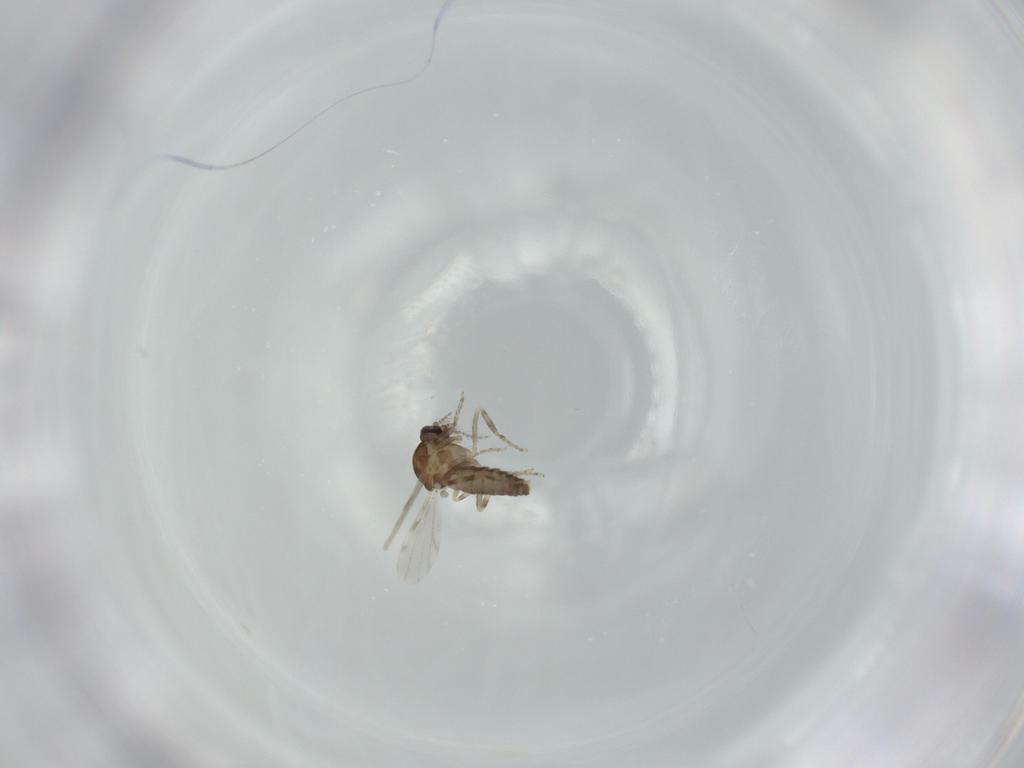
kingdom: Animalia
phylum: Arthropoda
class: Insecta
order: Diptera
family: Ceratopogonidae
